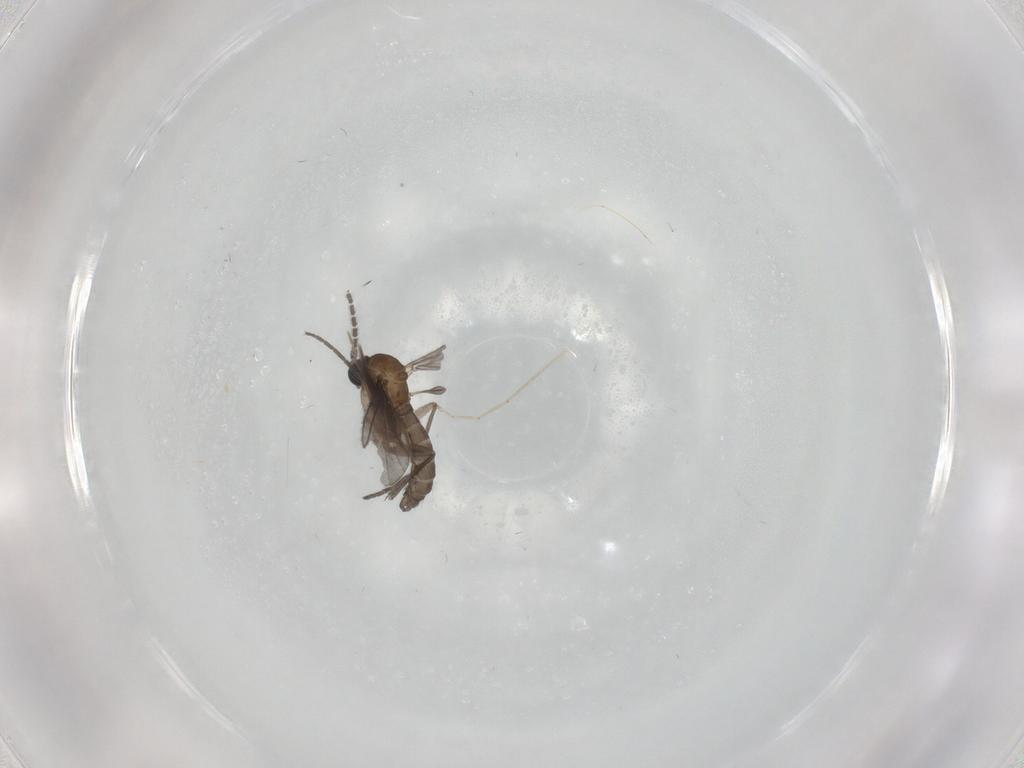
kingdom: Animalia
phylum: Arthropoda
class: Insecta
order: Diptera
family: Sciaridae
